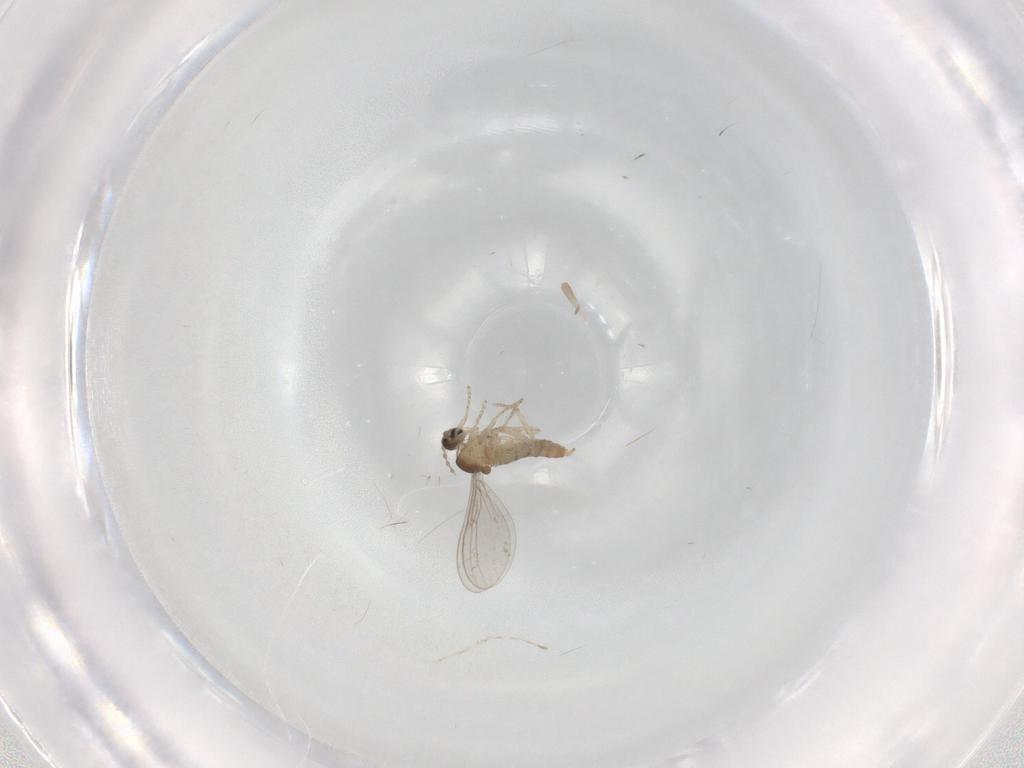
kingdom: Animalia
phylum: Arthropoda
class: Insecta
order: Diptera
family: Cecidomyiidae
